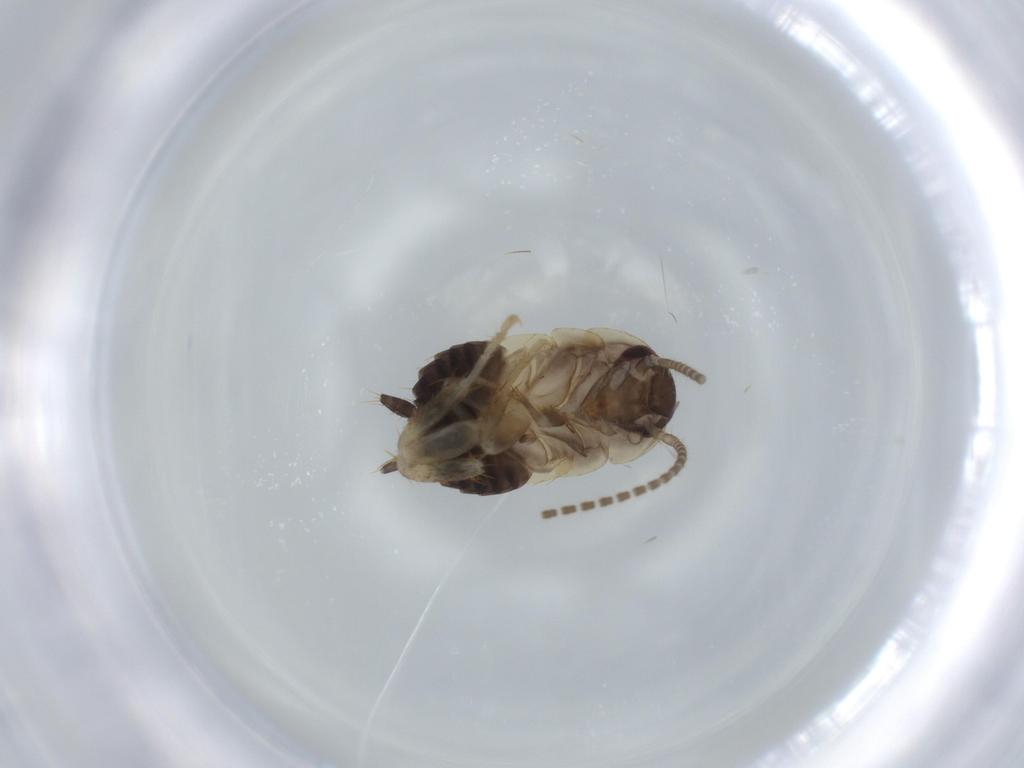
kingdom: Animalia
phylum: Arthropoda
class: Insecta
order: Blattodea
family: Ectobiidae
